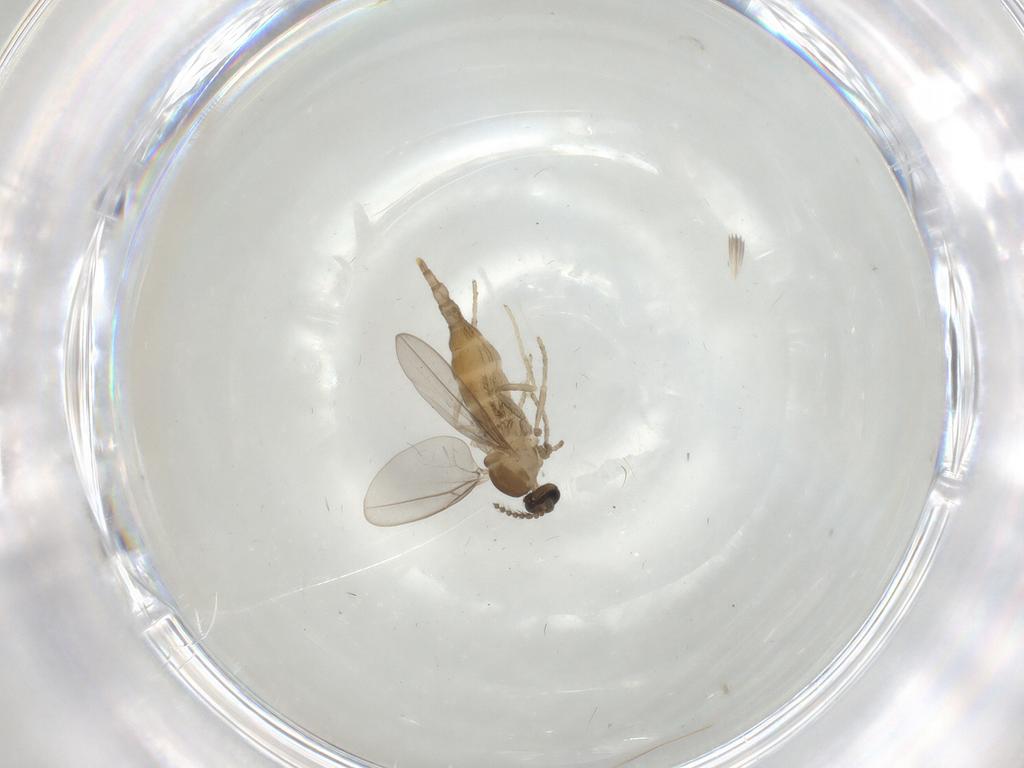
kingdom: Animalia
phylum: Arthropoda
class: Insecta
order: Diptera
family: Cecidomyiidae
